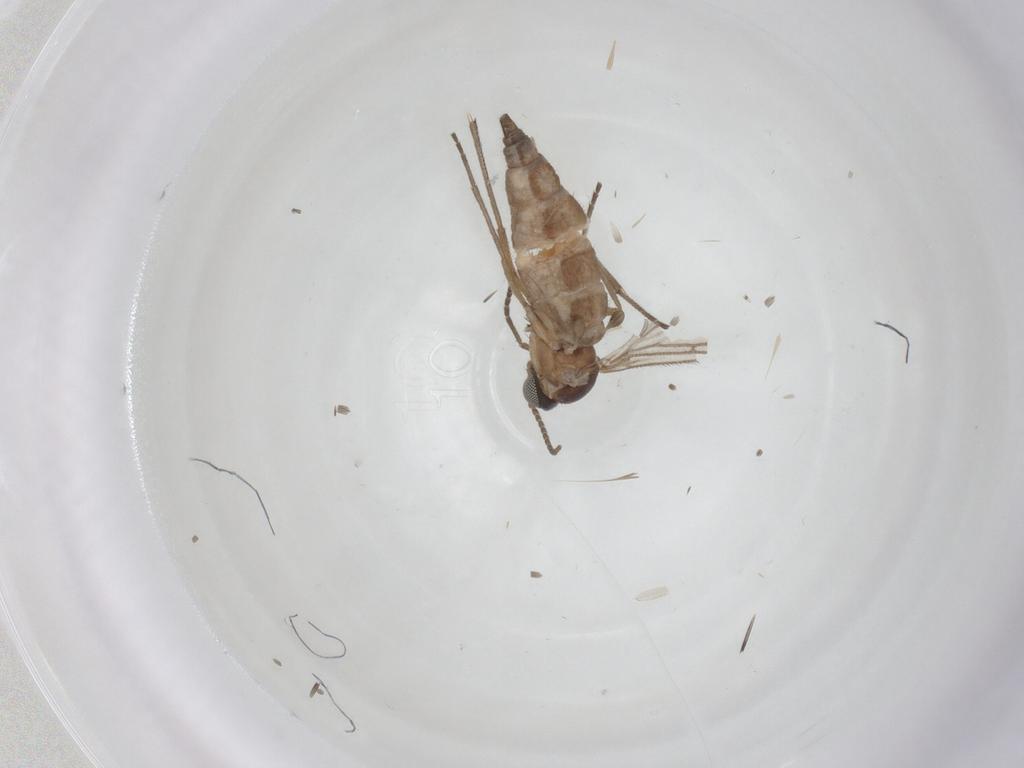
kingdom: Animalia
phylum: Arthropoda
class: Insecta
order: Diptera
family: Sciaridae
